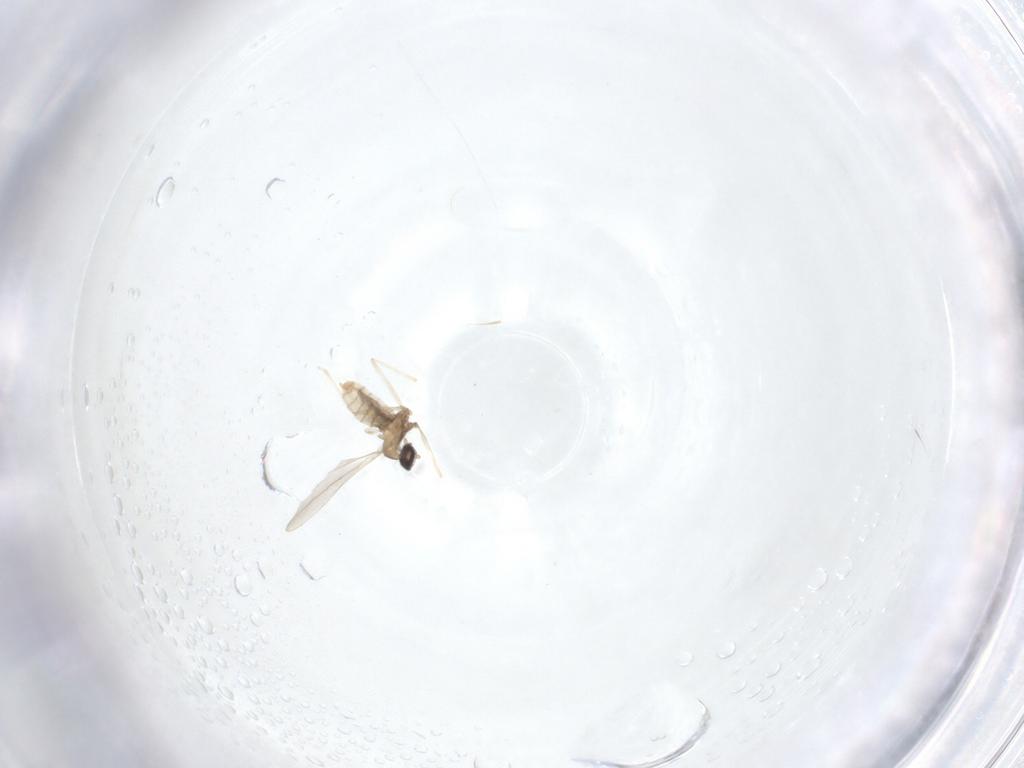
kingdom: Animalia
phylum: Arthropoda
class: Insecta
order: Diptera
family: Cecidomyiidae
